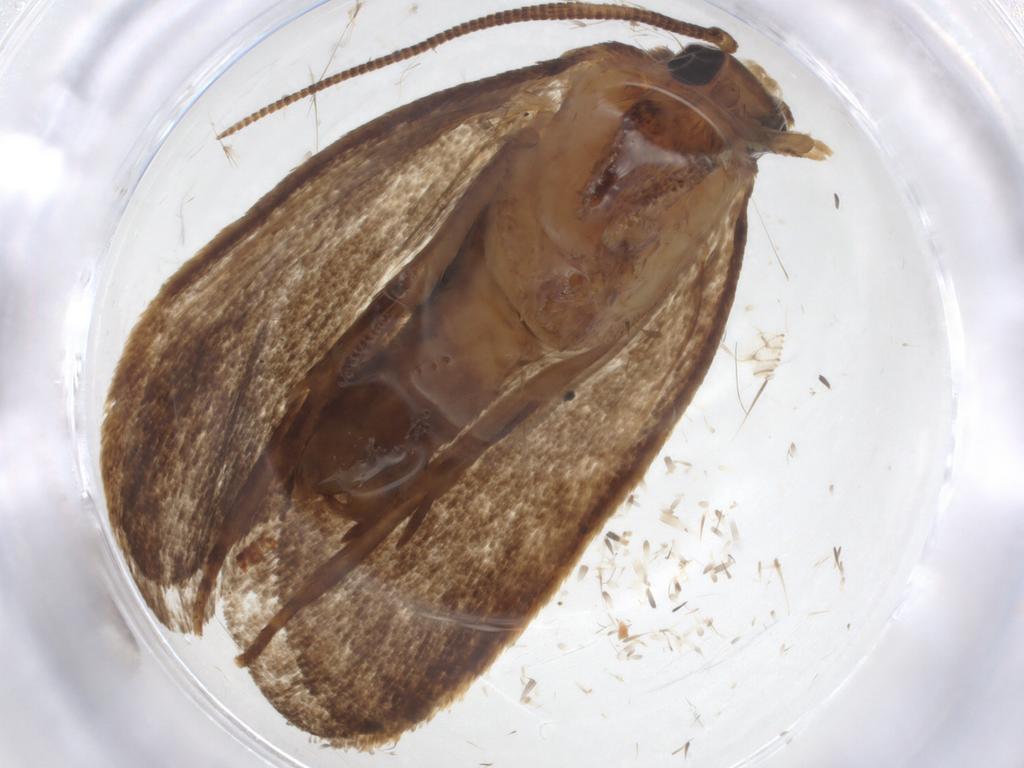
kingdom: Animalia
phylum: Arthropoda
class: Insecta
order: Lepidoptera
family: Tineidae
